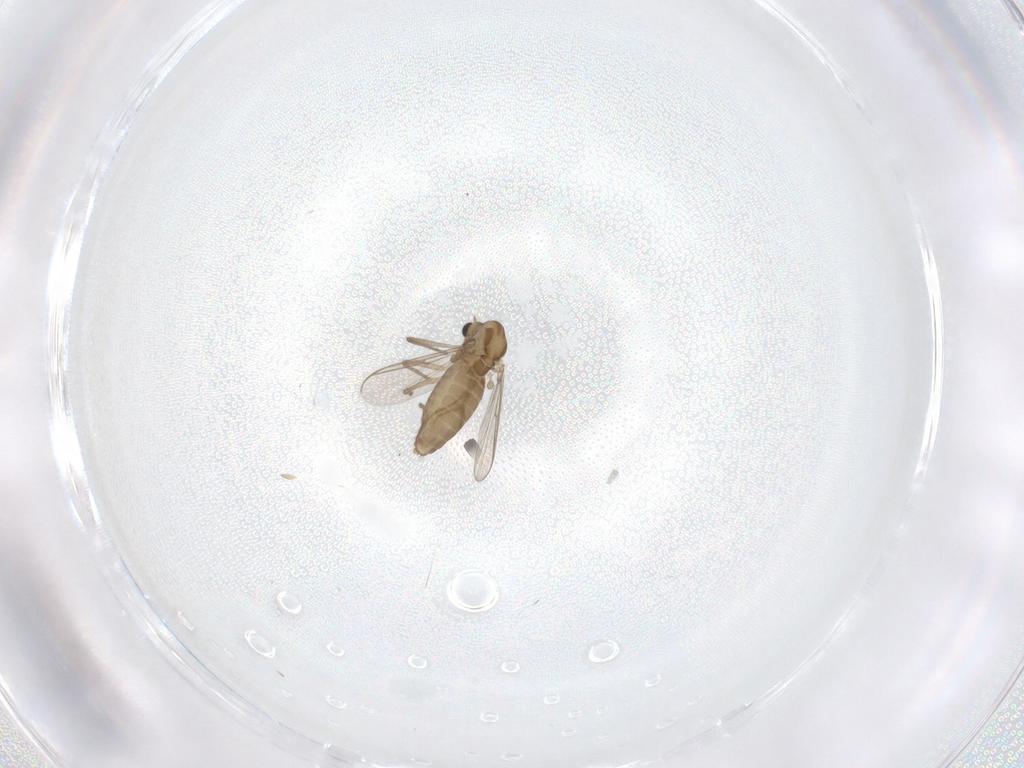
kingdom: Animalia
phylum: Arthropoda
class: Insecta
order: Diptera
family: Chironomidae
